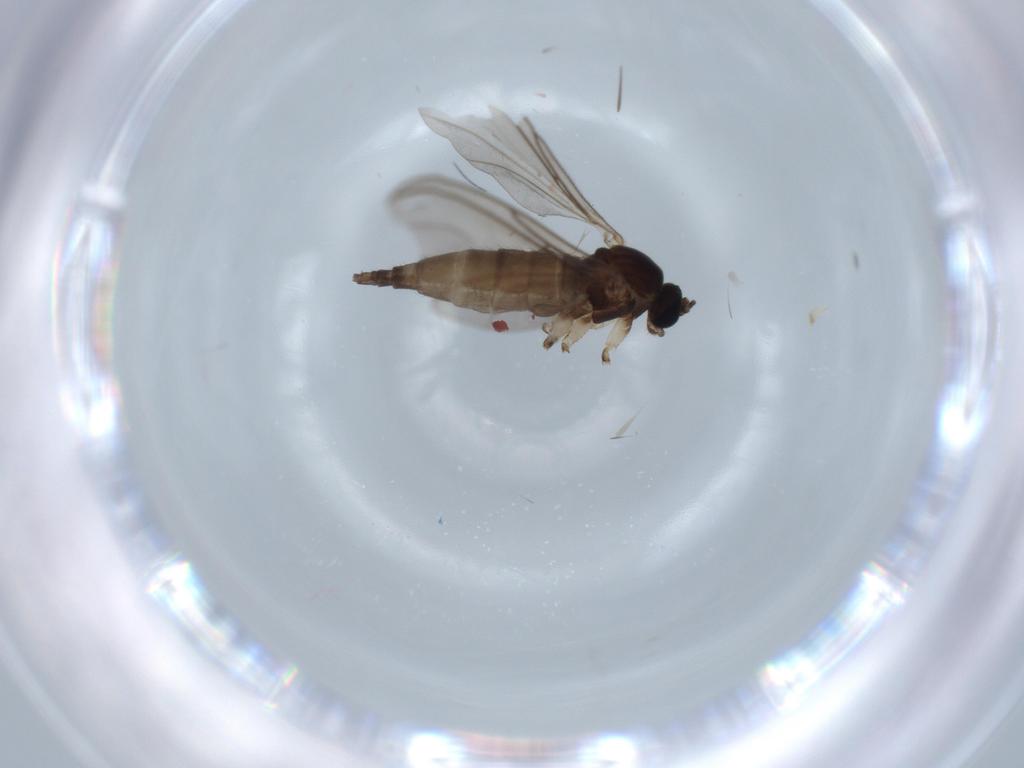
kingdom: Animalia
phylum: Arthropoda
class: Insecta
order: Diptera
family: Sciaridae
